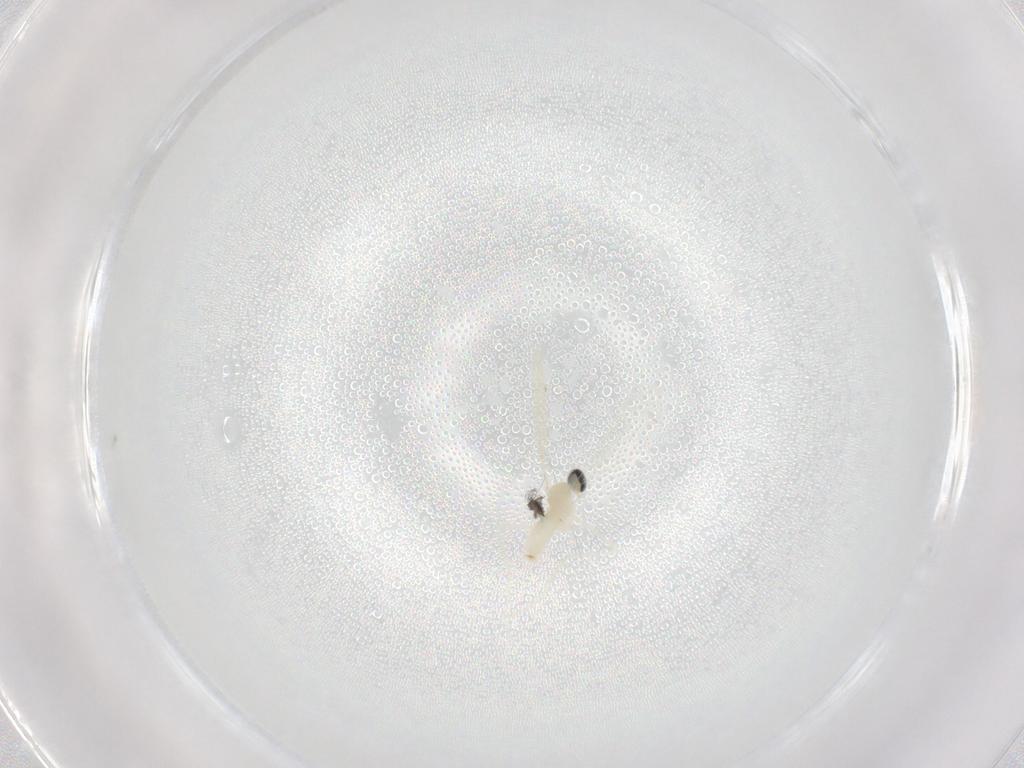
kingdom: Animalia
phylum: Arthropoda
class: Insecta
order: Diptera
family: Cecidomyiidae
